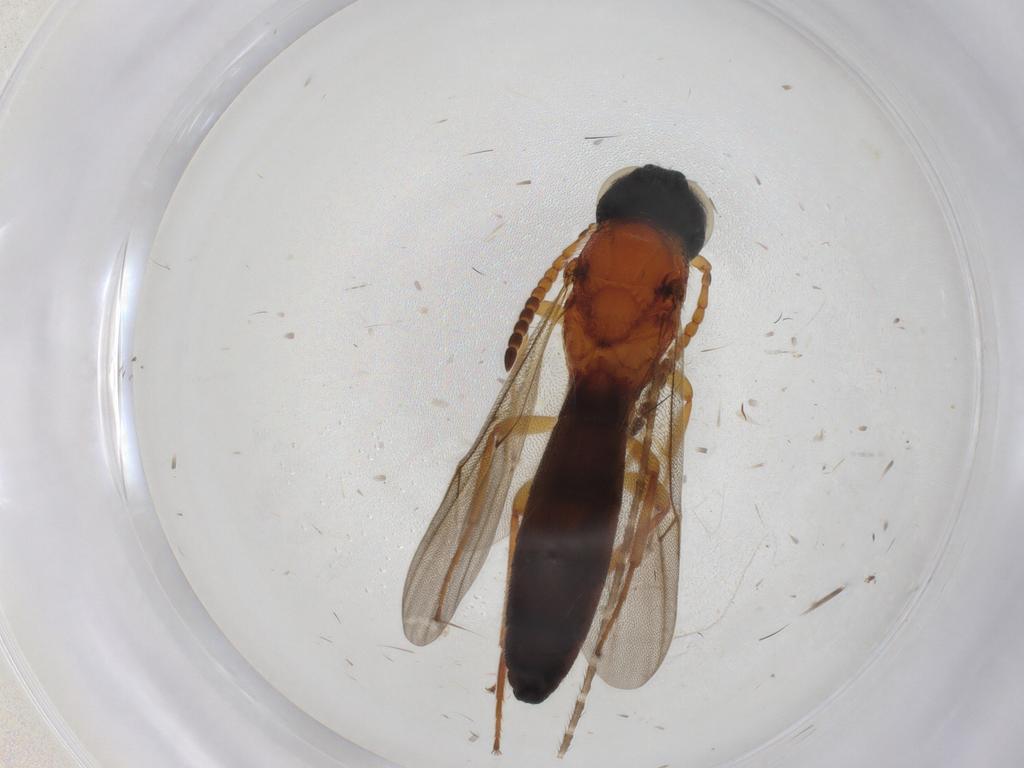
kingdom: Animalia
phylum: Arthropoda
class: Insecta
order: Hymenoptera
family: Scelionidae
